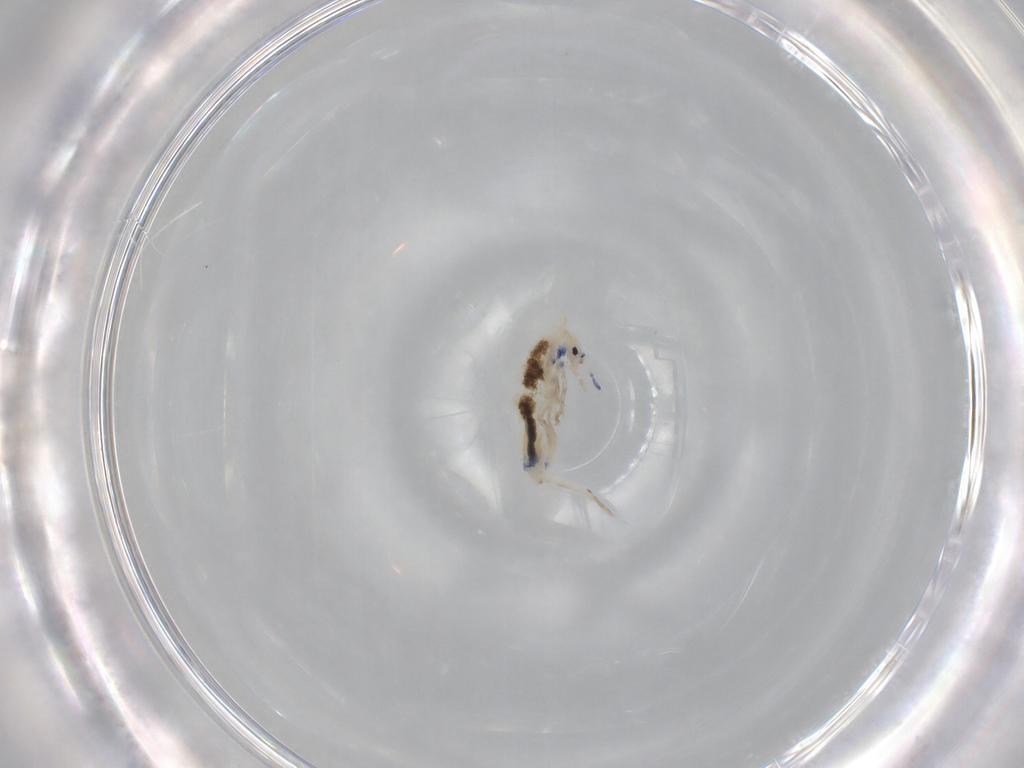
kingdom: Animalia
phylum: Arthropoda
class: Collembola
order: Entomobryomorpha
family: Entomobryidae
